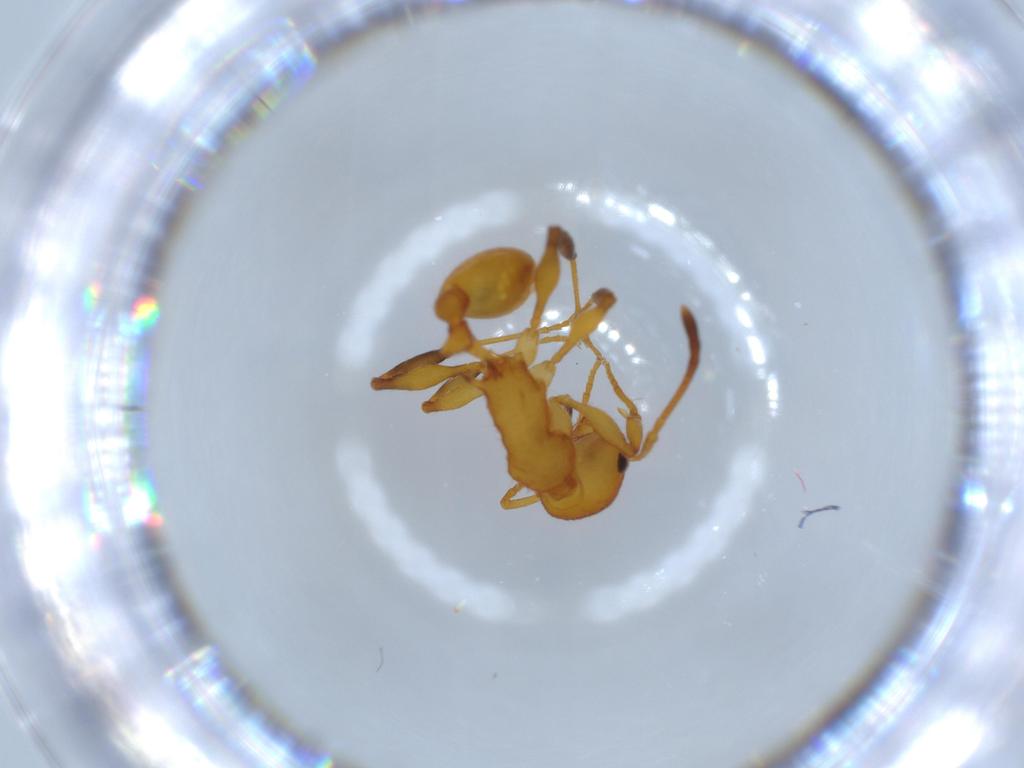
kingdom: Animalia
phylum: Arthropoda
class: Insecta
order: Hymenoptera
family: Formicidae
